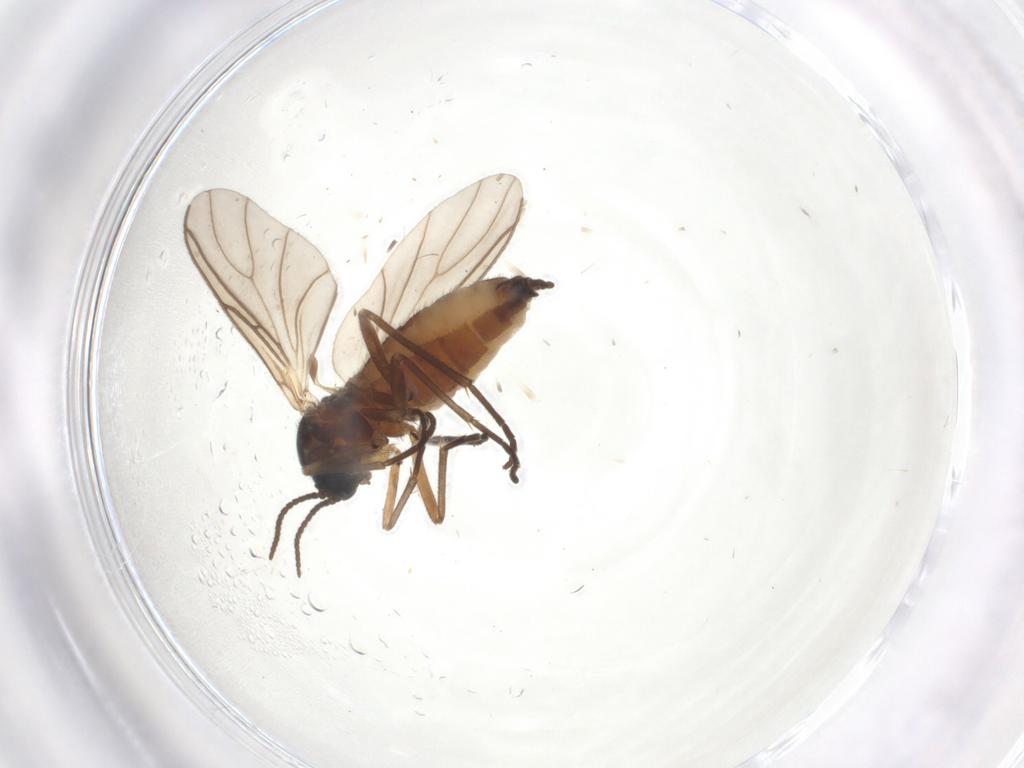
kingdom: Animalia
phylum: Arthropoda
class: Insecta
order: Diptera
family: Sciaridae
